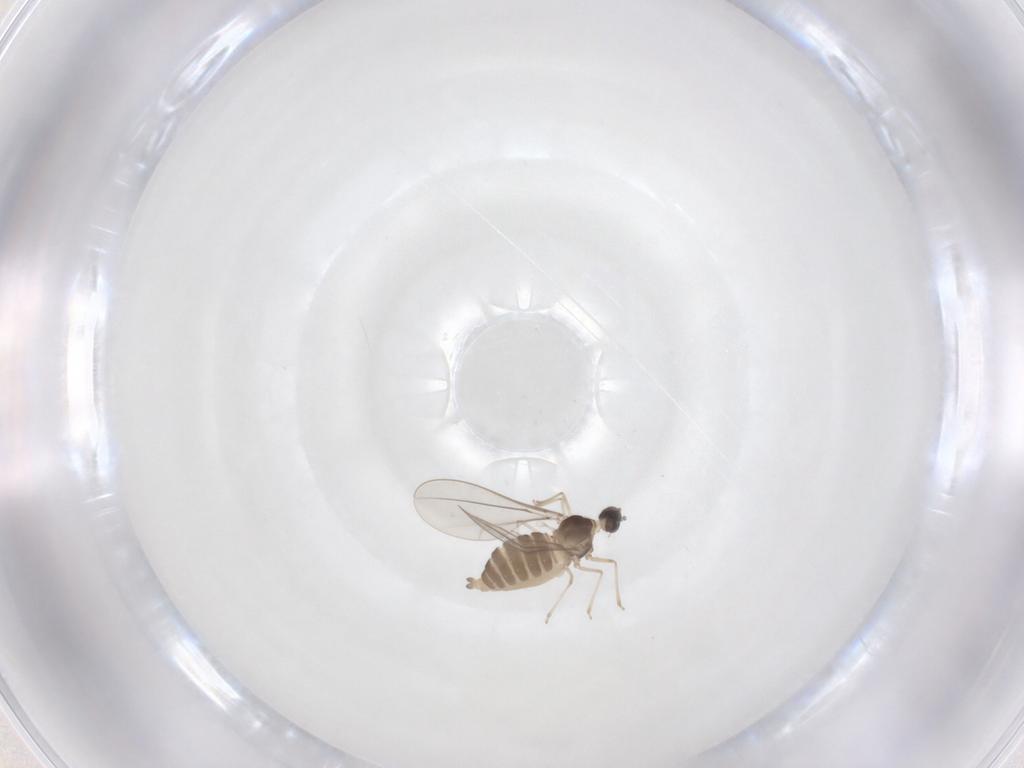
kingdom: Animalia
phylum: Arthropoda
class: Insecta
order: Diptera
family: Cecidomyiidae
